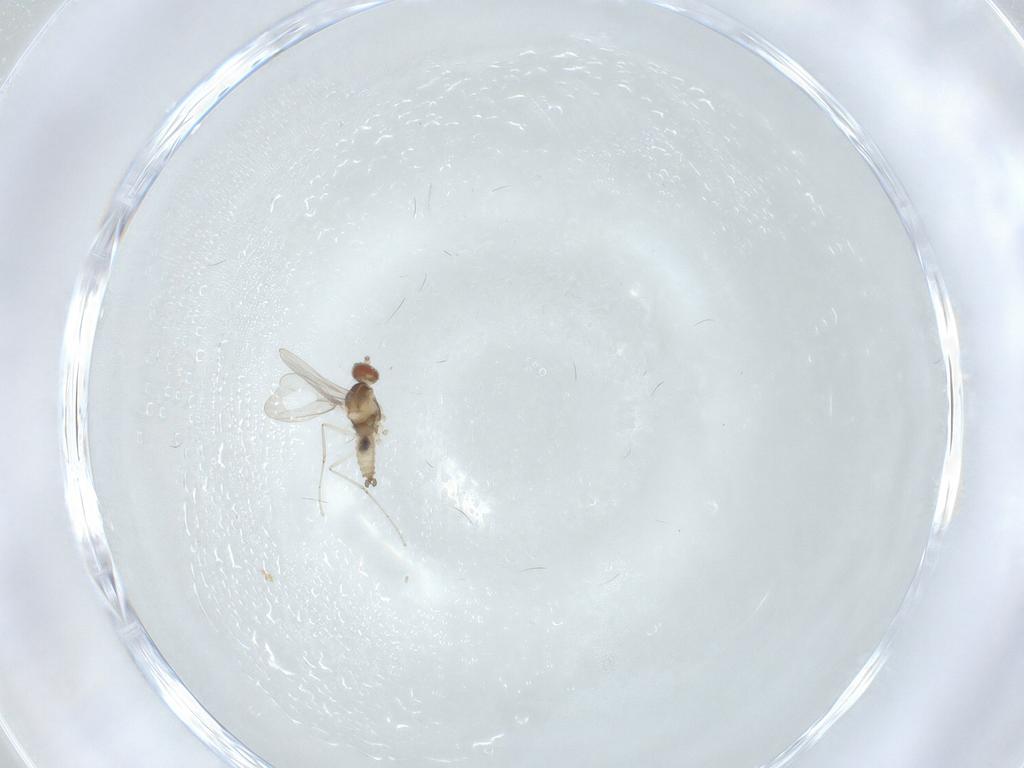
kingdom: Animalia
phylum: Arthropoda
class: Insecta
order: Diptera
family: Cecidomyiidae
